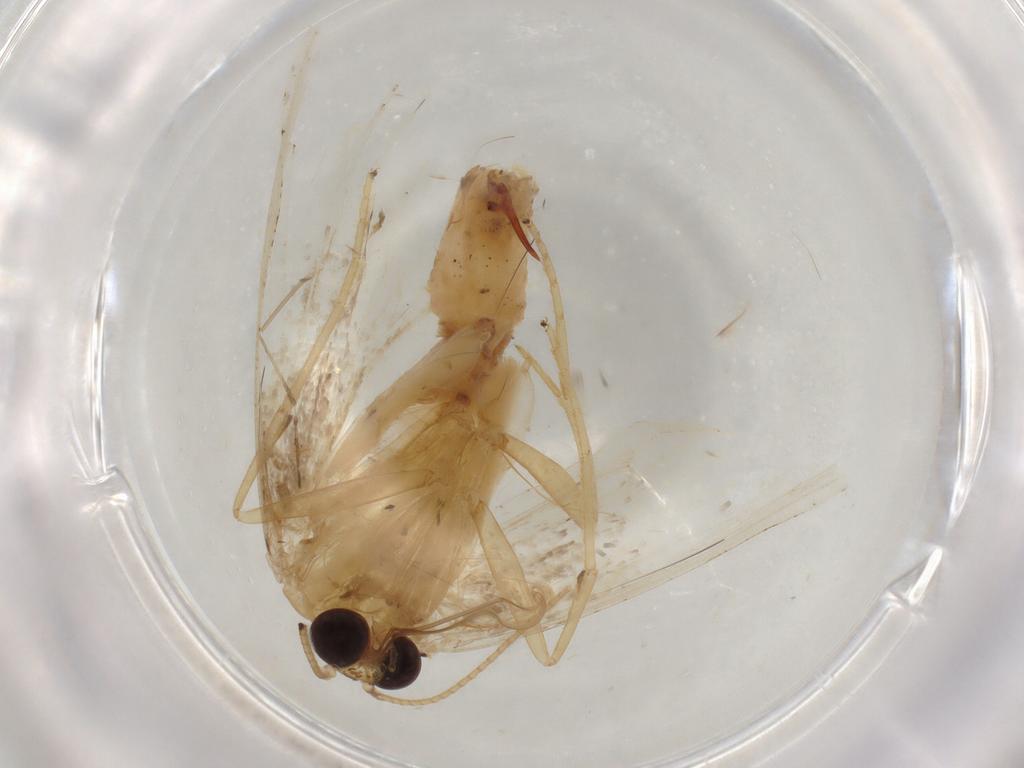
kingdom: Animalia
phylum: Arthropoda
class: Insecta
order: Lepidoptera
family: Geometridae
